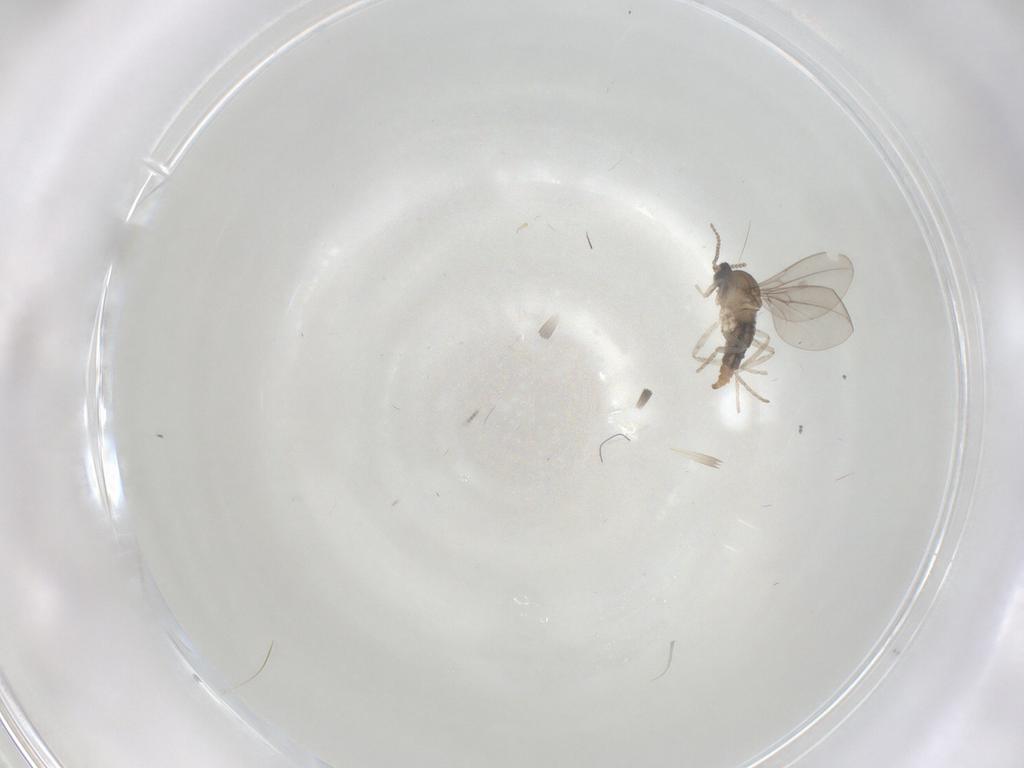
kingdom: Animalia
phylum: Arthropoda
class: Insecta
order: Diptera
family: Cecidomyiidae
